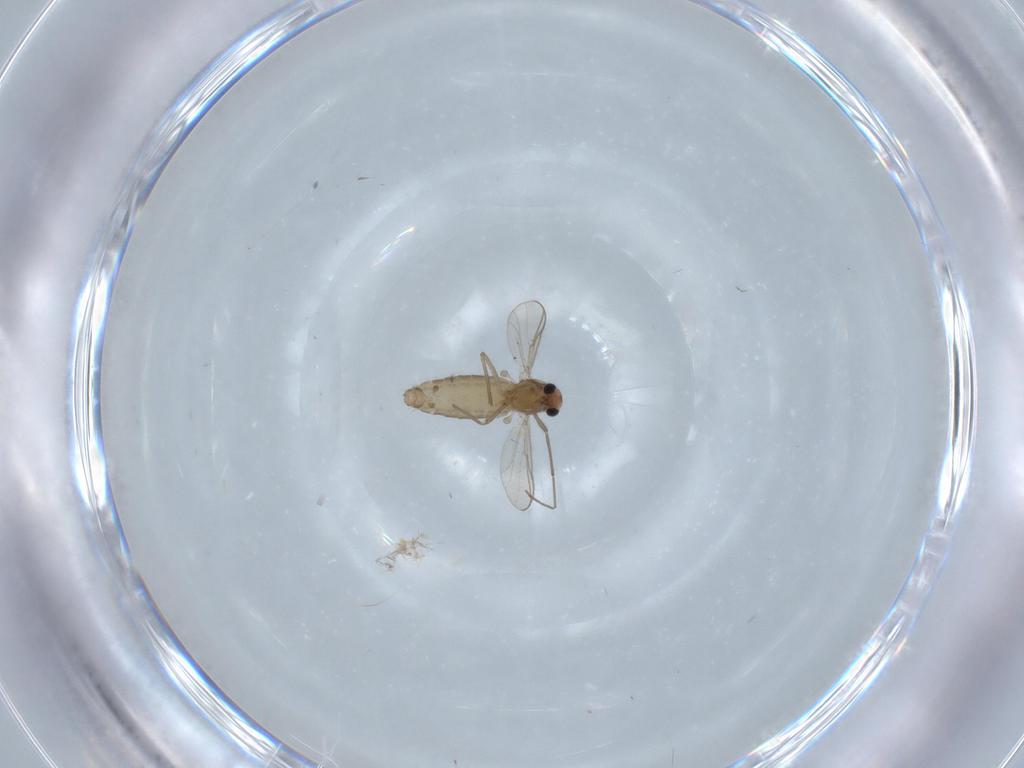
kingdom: Animalia
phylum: Arthropoda
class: Insecta
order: Diptera
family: Chironomidae
